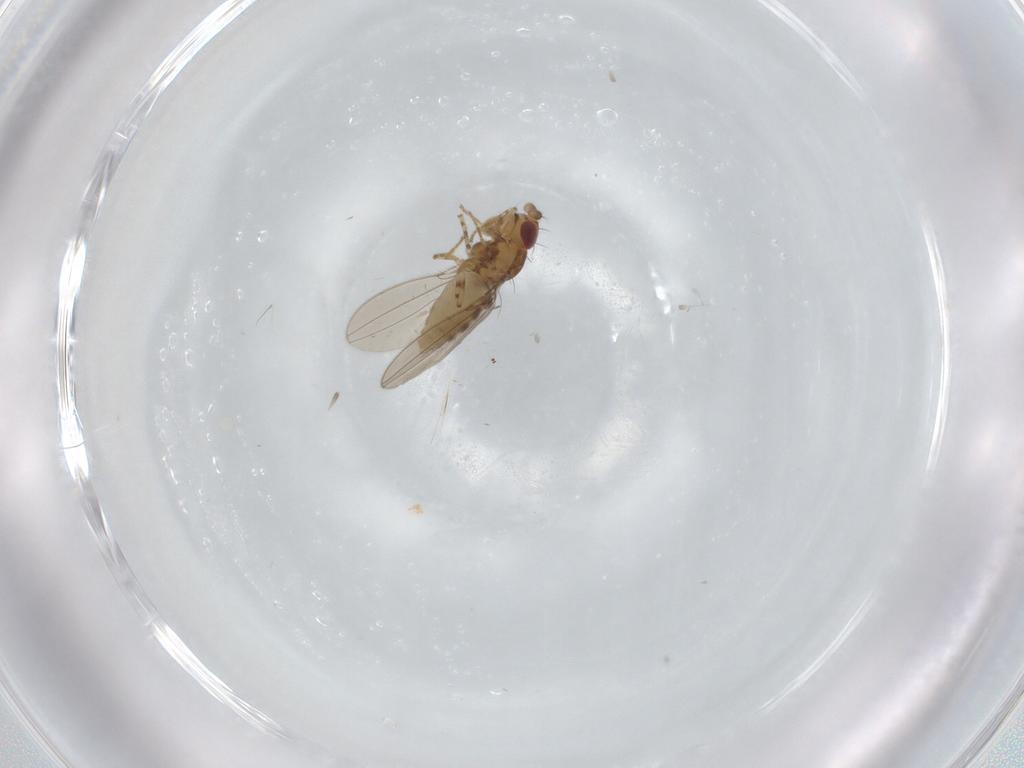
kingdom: Animalia
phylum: Arthropoda
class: Insecta
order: Diptera
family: Asteiidae
